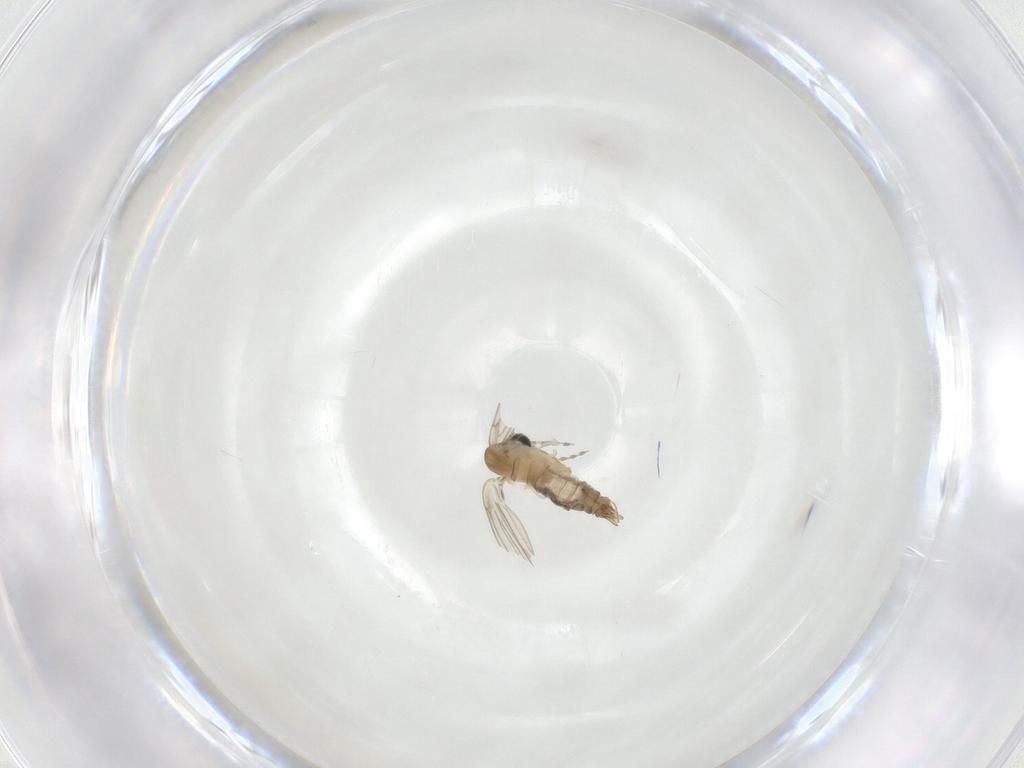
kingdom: Animalia
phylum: Arthropoda
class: Insecta
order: Diptera
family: Psychodidae
